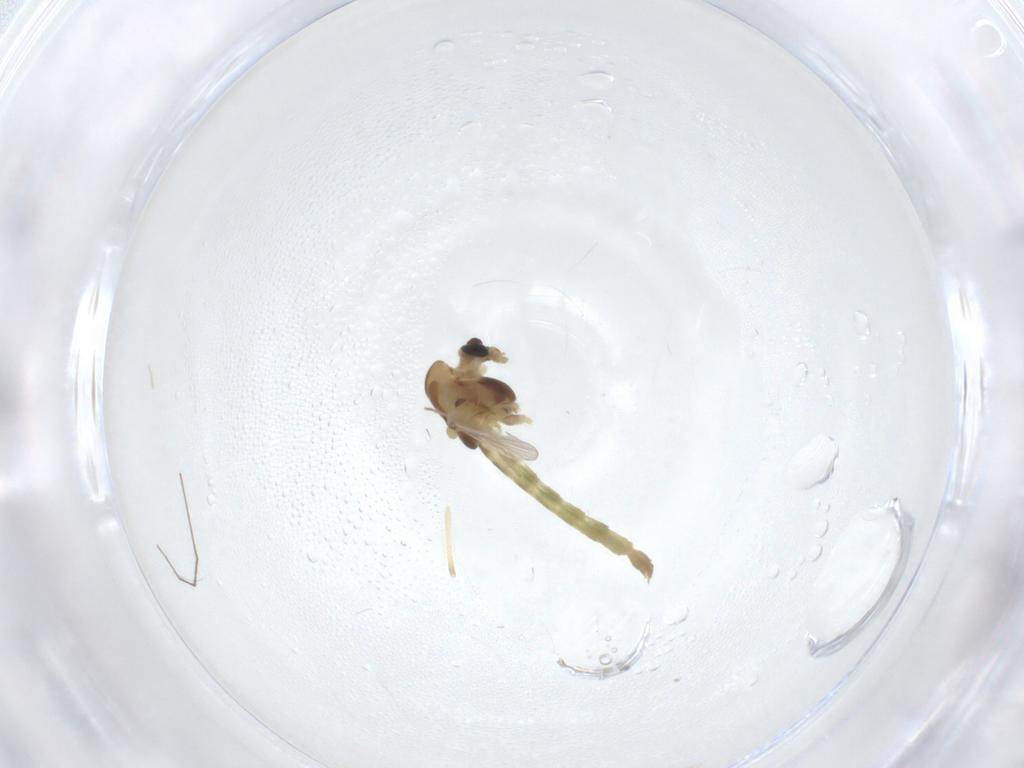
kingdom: Animalia
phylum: Arthropoda
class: Insecta
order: Diptera
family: Chironomidae
